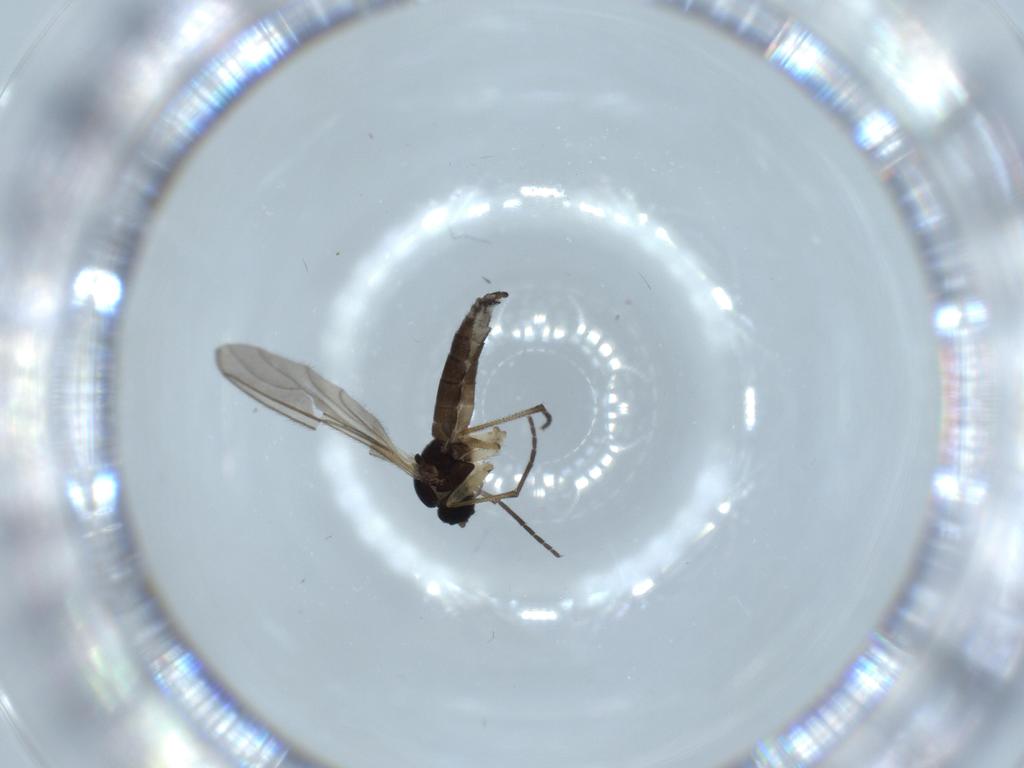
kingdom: Animalia
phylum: Arthropoda
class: Insecta
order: Diptera
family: Sciaridae
